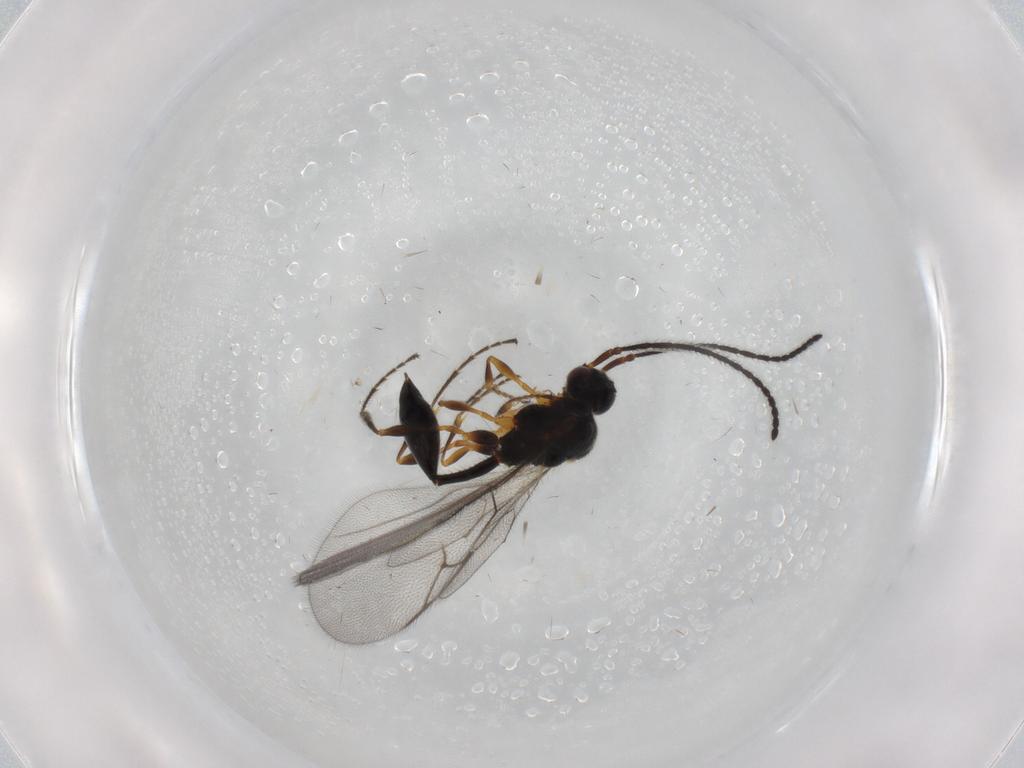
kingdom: Animalia
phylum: Arthropoda
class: Insecta
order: Hymenoptera
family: Diapriidae
